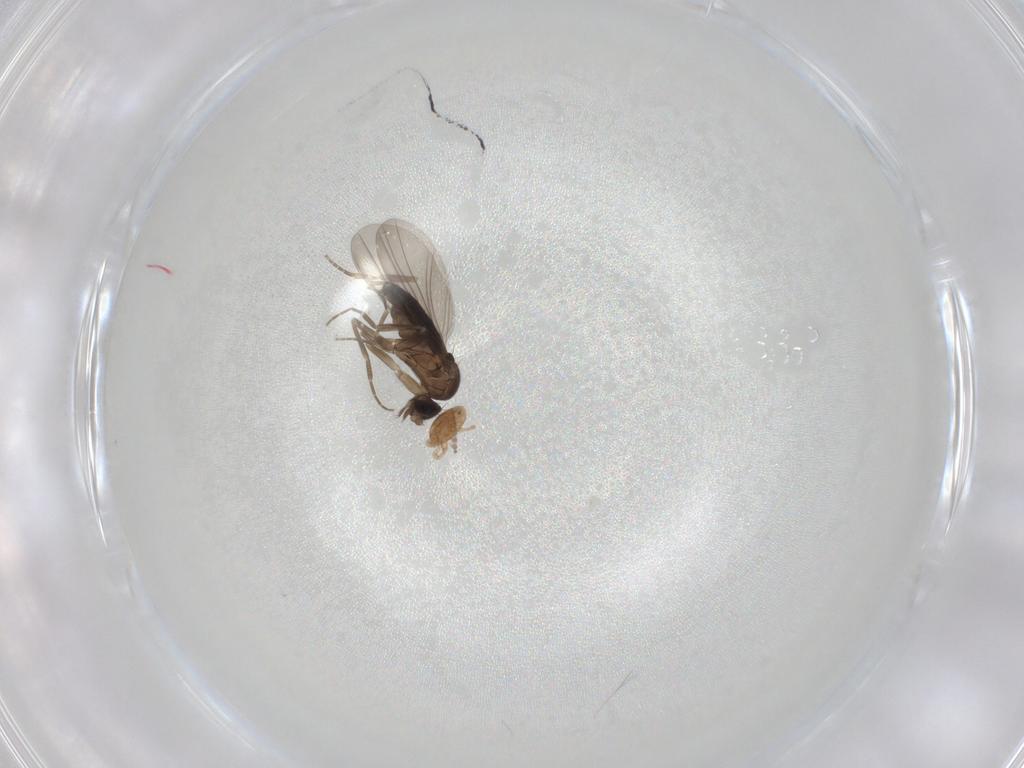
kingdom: Animalia
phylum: Arthropoda
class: Insecta
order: Diptera
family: Phoridae
